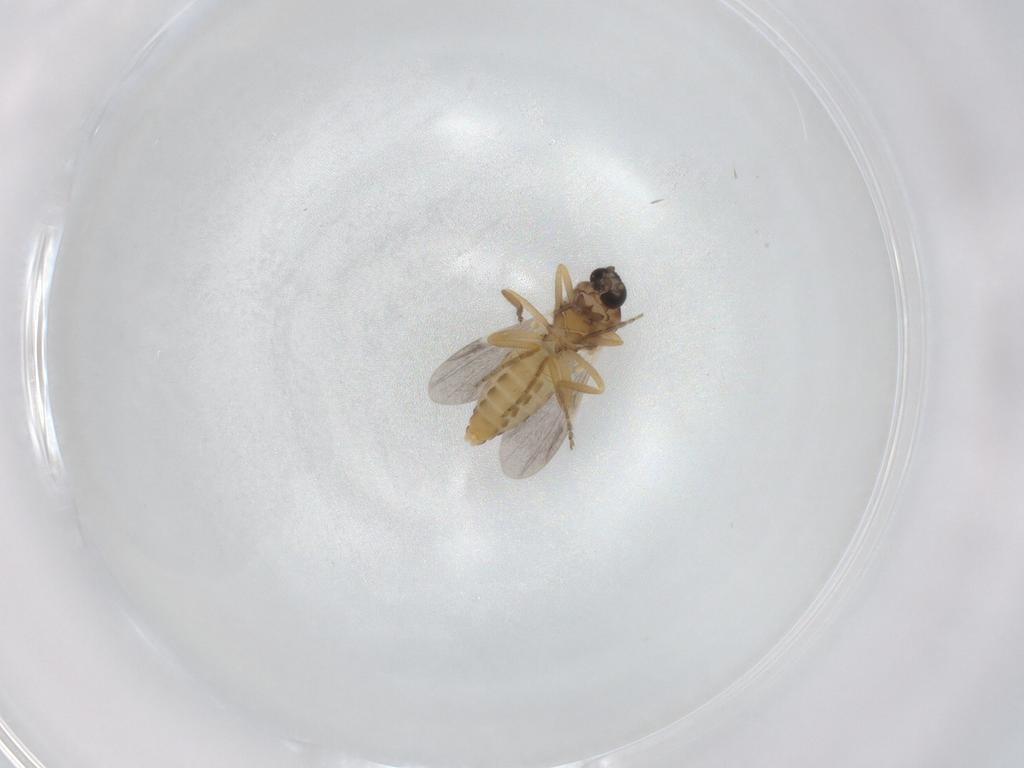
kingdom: Animalia
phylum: Arthropoda
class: Insecta
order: Diptera
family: Ceratopogonidae
